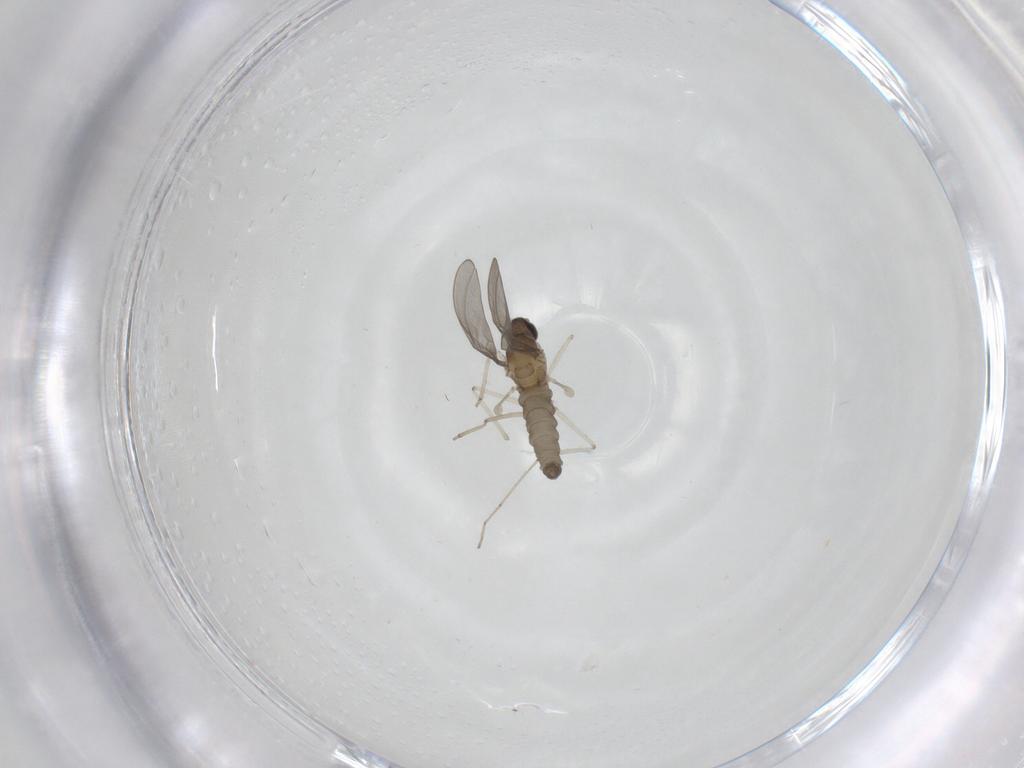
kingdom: Animalia
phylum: Arthropoda
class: Insecta
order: Diptera
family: Cecidomyiidae
